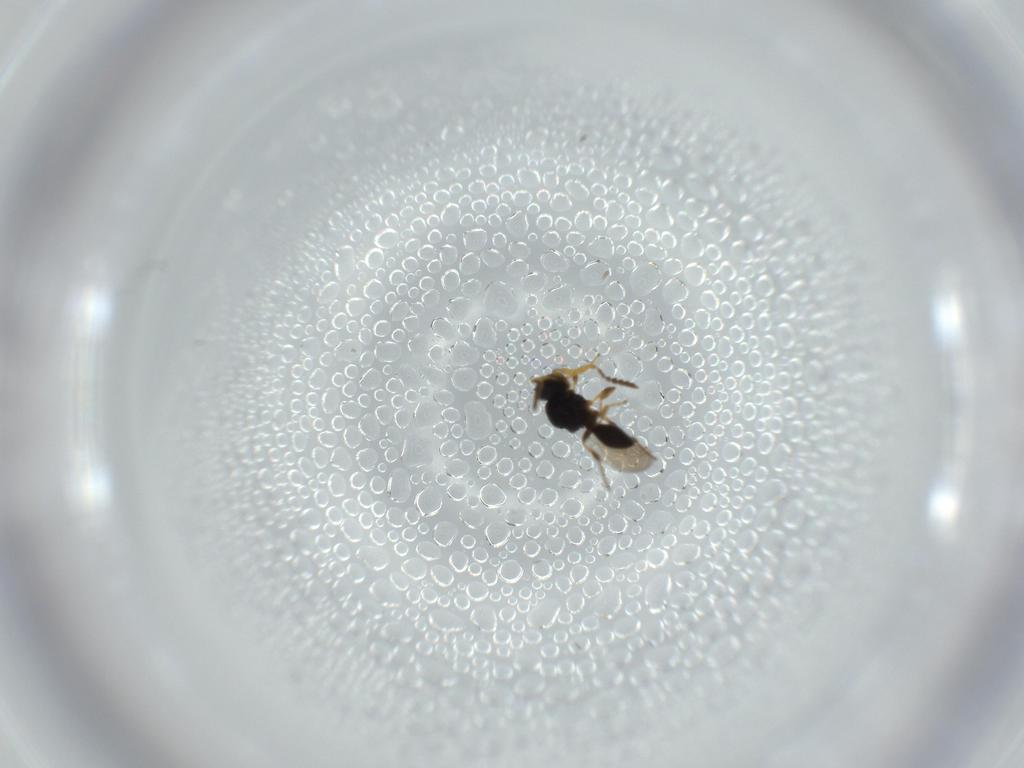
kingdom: Animalia
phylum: Arthropoda
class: Insecta
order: Hymenoptera
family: Platygastridae
